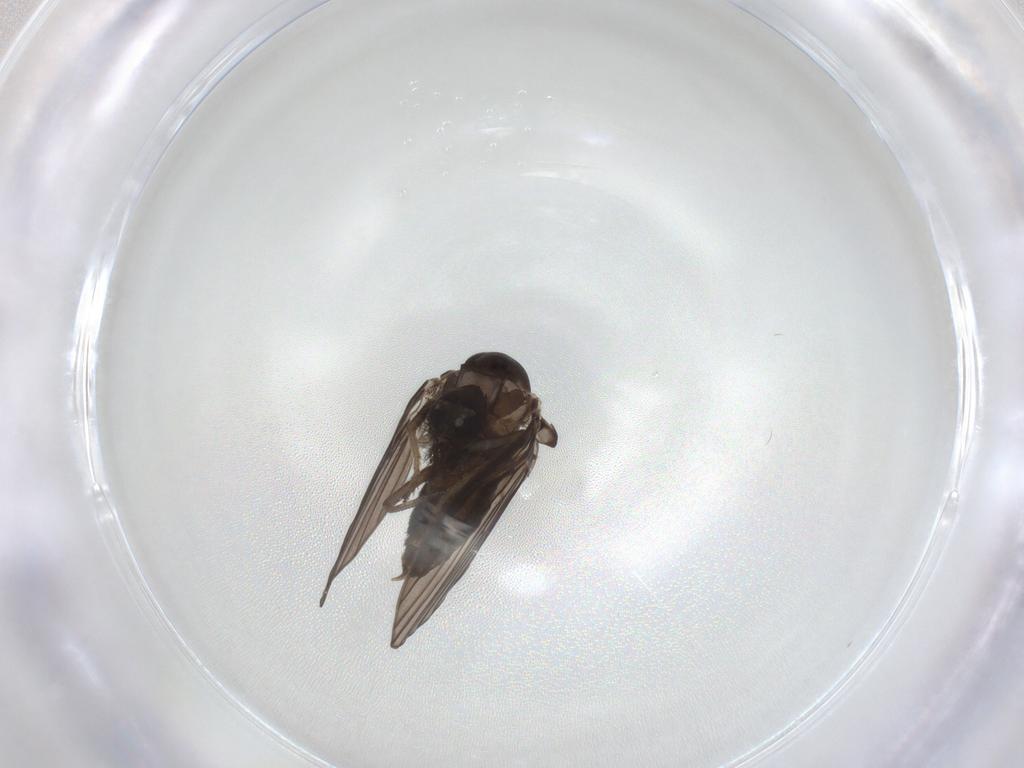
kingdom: Animalia
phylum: Arthropoda
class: Insecta
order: Diptera
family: Psychodidae
